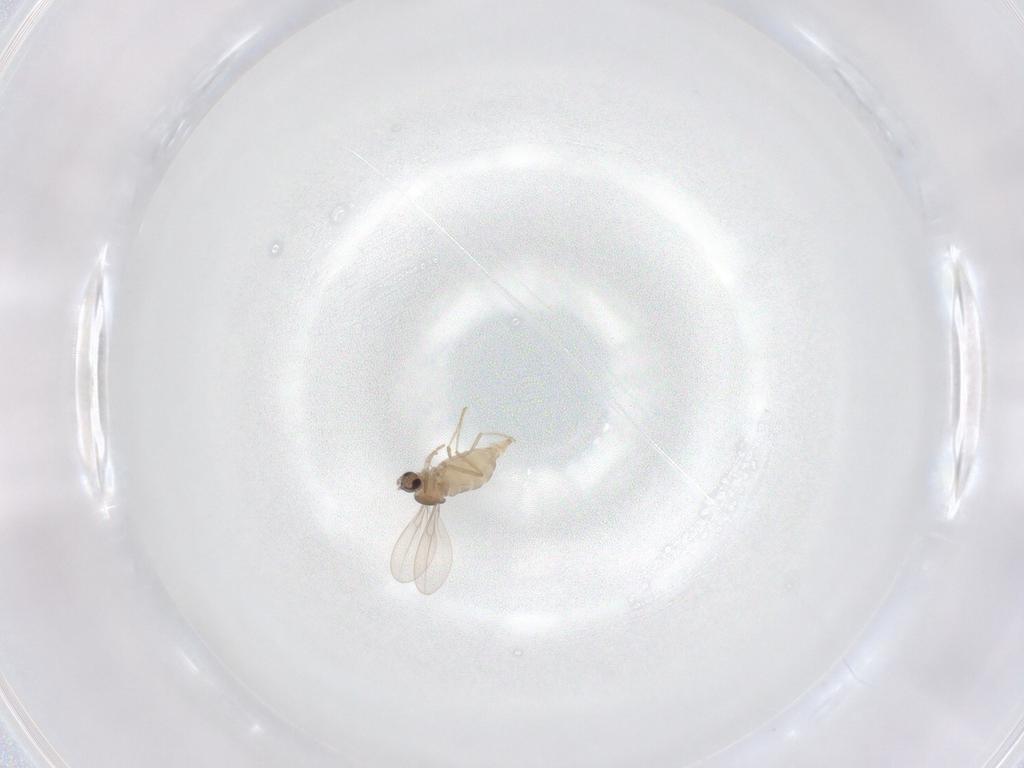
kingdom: Animalia
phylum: Arthropoda
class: Insecta
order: Diptera
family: Cecidomyiidae
